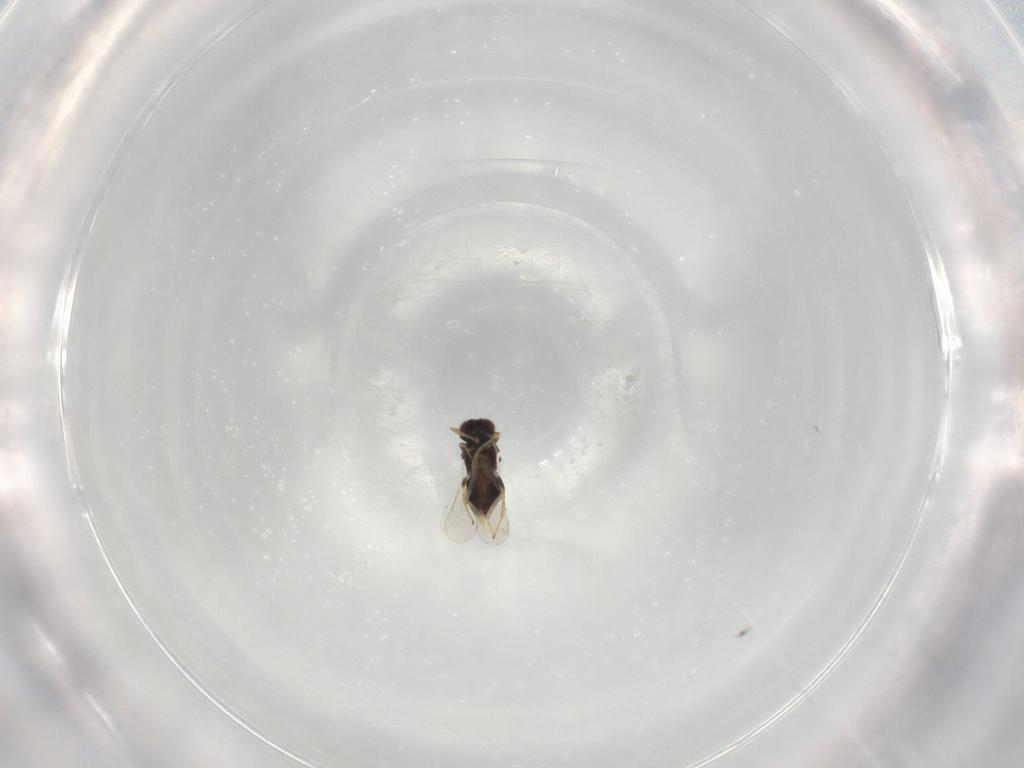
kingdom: Animalia
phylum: Arthropoda
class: Insecta
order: Hymenoptera
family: Aphelinidae
